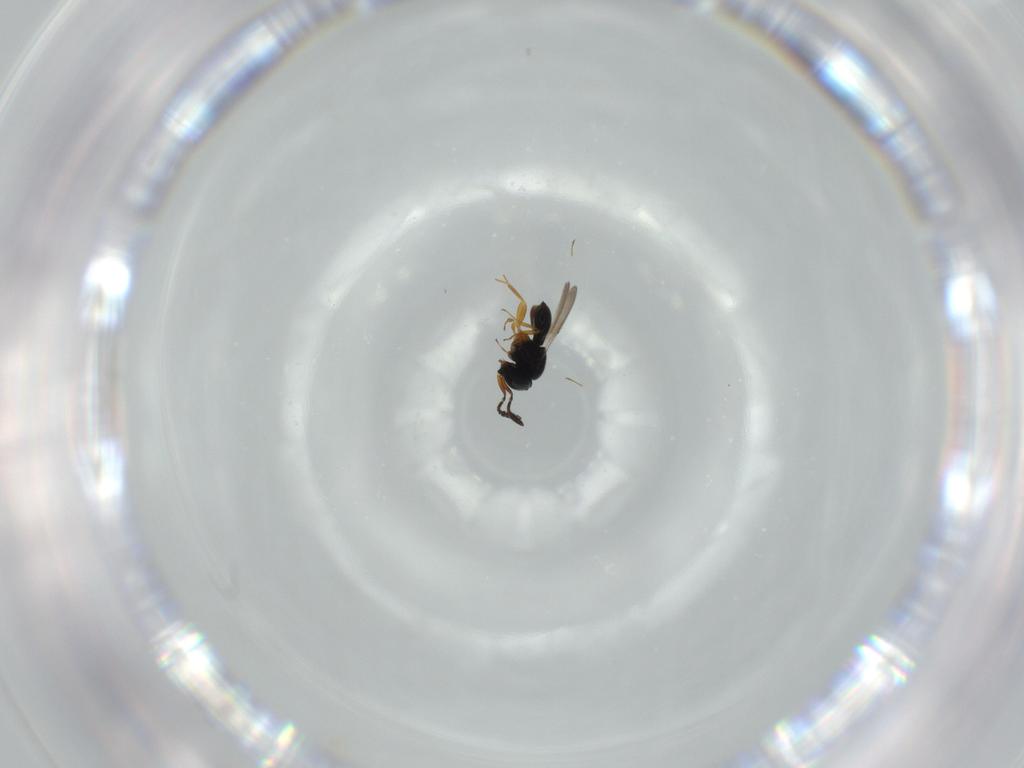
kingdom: Animalia
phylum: Arthropoda
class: Insecta
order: Hymenoptera
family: Scelionidae
